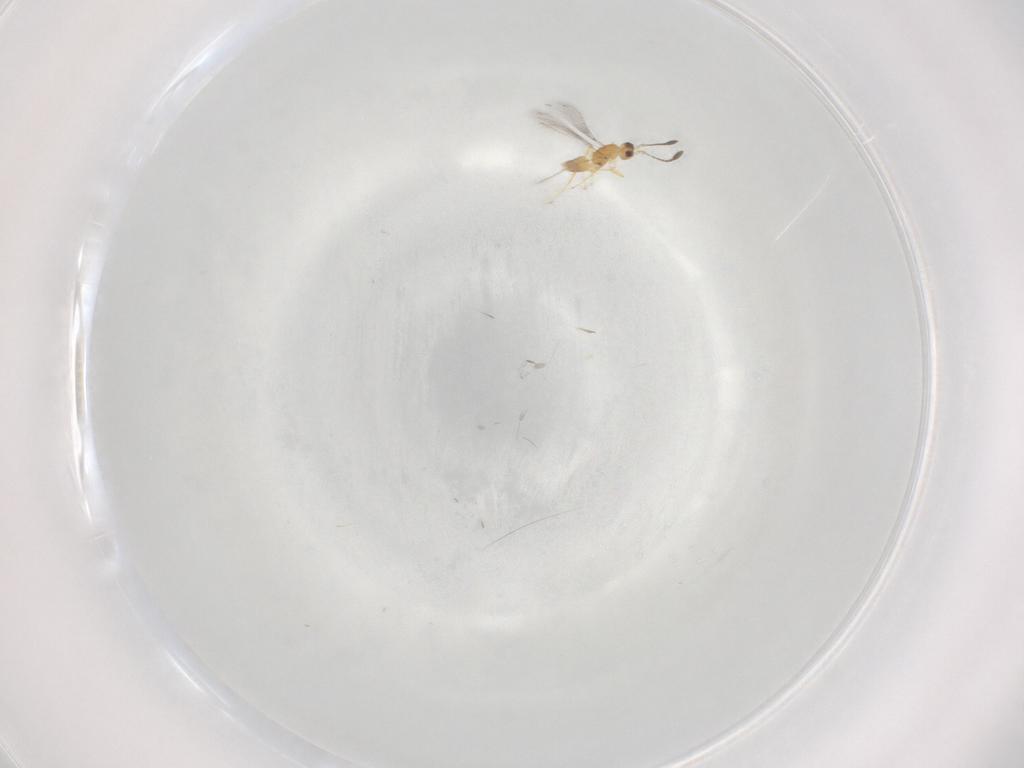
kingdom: Animalia
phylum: Arthropoda
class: Insecta
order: Hymenoptera
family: Mymaridae
